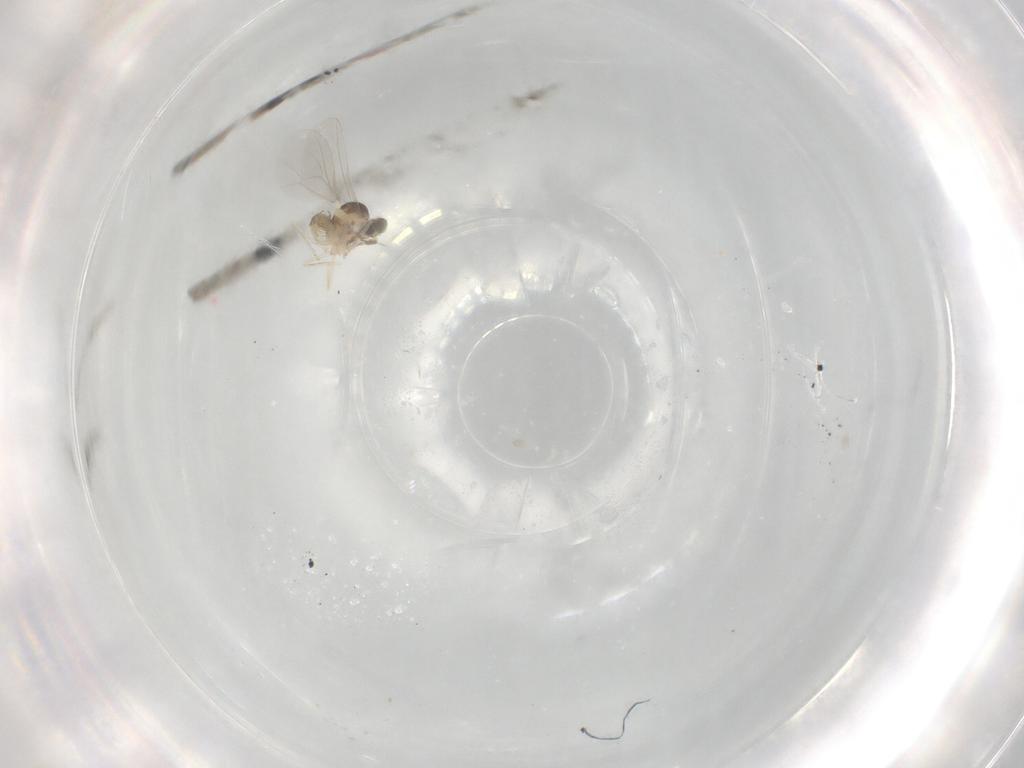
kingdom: Animalia
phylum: Arthropoda
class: Insecta
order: Diptera
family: Cecidomyiidae
